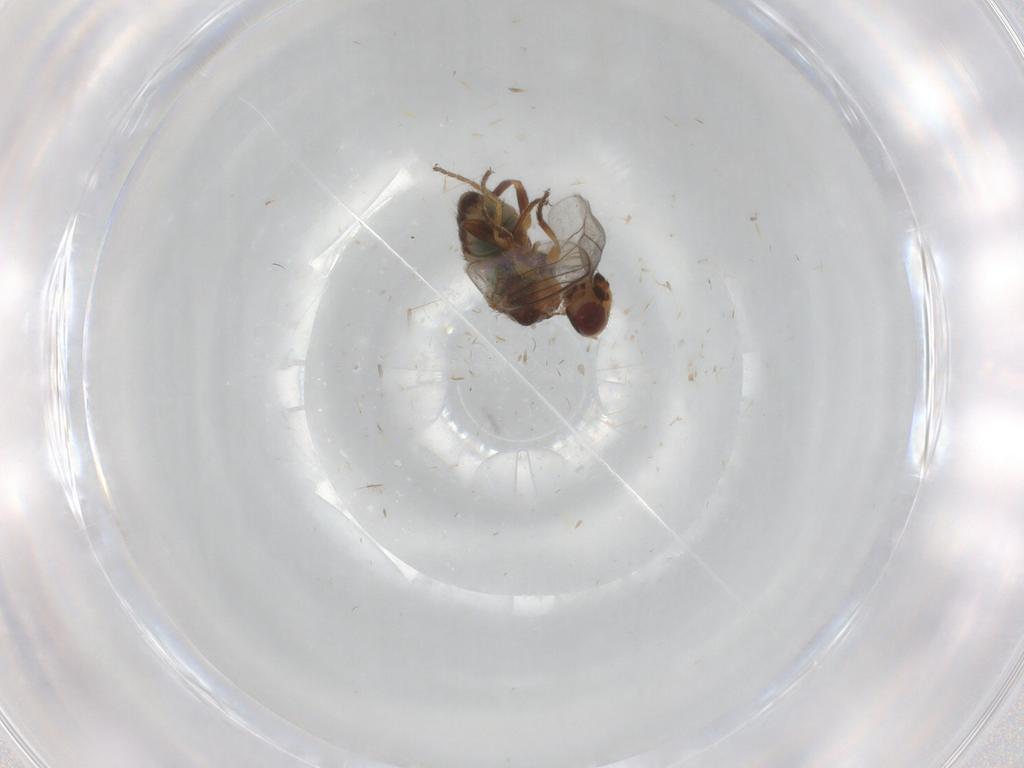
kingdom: Animalia
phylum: Arthropoda
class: Insecta
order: Diptera
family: Chloropidae
